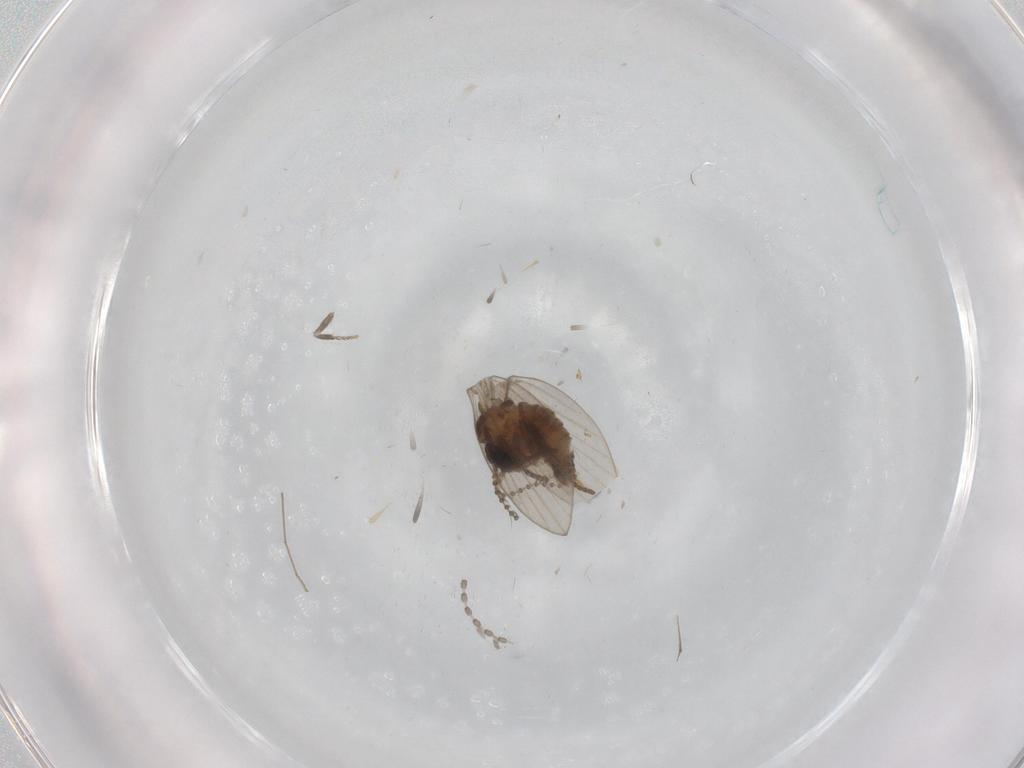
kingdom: Animalia
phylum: Arthropoda
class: Insecta
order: Diptera
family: Psychodidae
